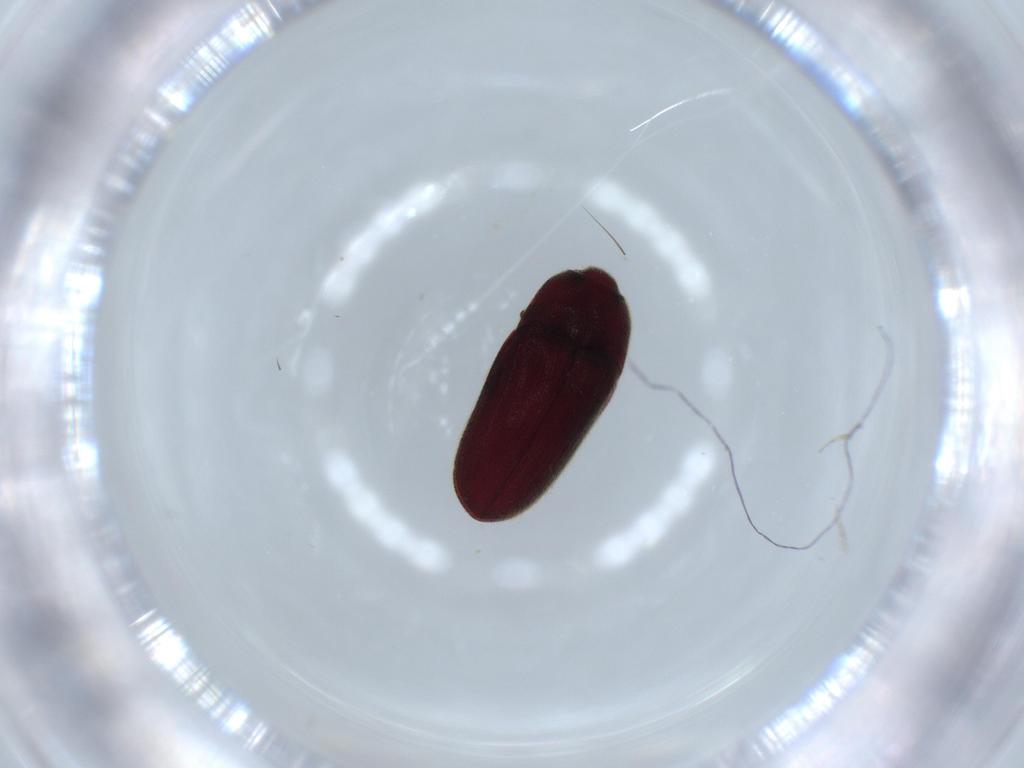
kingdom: Animalia
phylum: Arthropoda
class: Insecta
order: Coleoptera
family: Throscidae
